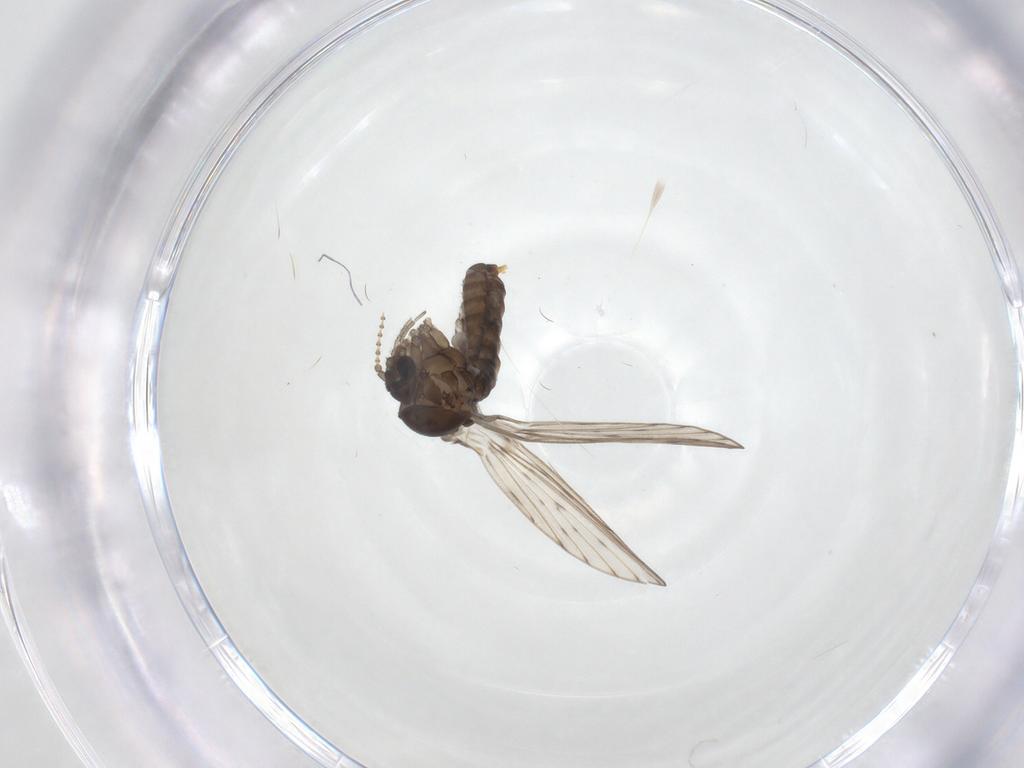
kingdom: Animalia
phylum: Arthropoda
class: Insecta
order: Diptera
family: Psychodidae
